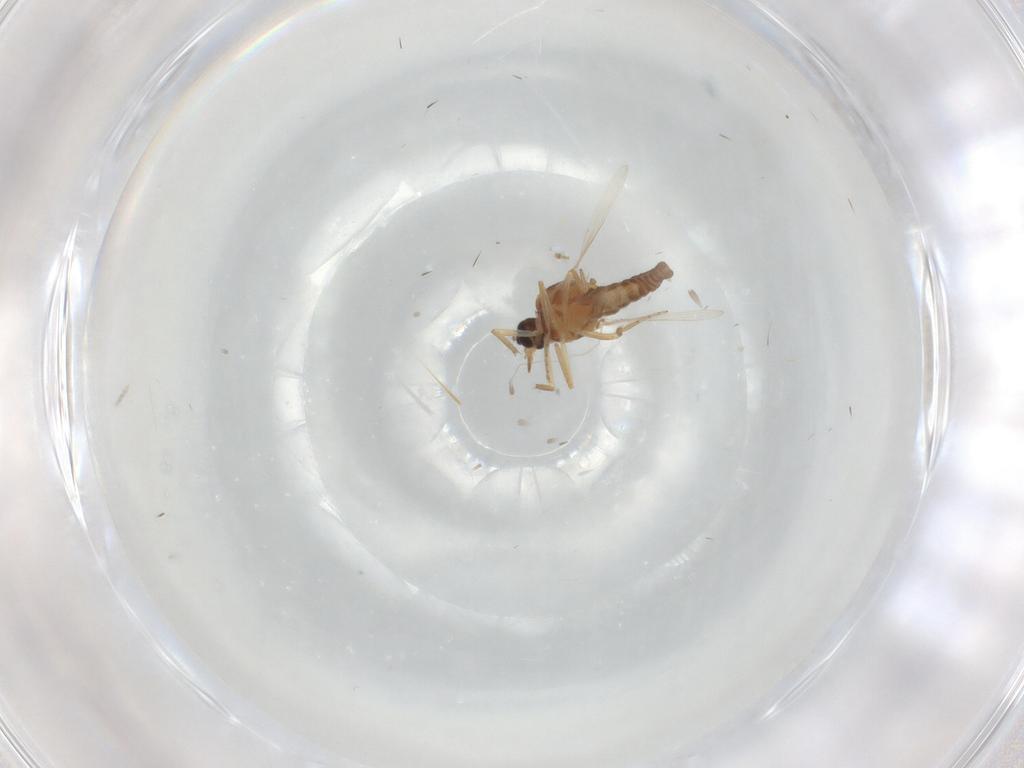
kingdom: Animalia
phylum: Arthropoda
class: Insecta
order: Diptera
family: Ceratopogonidae
